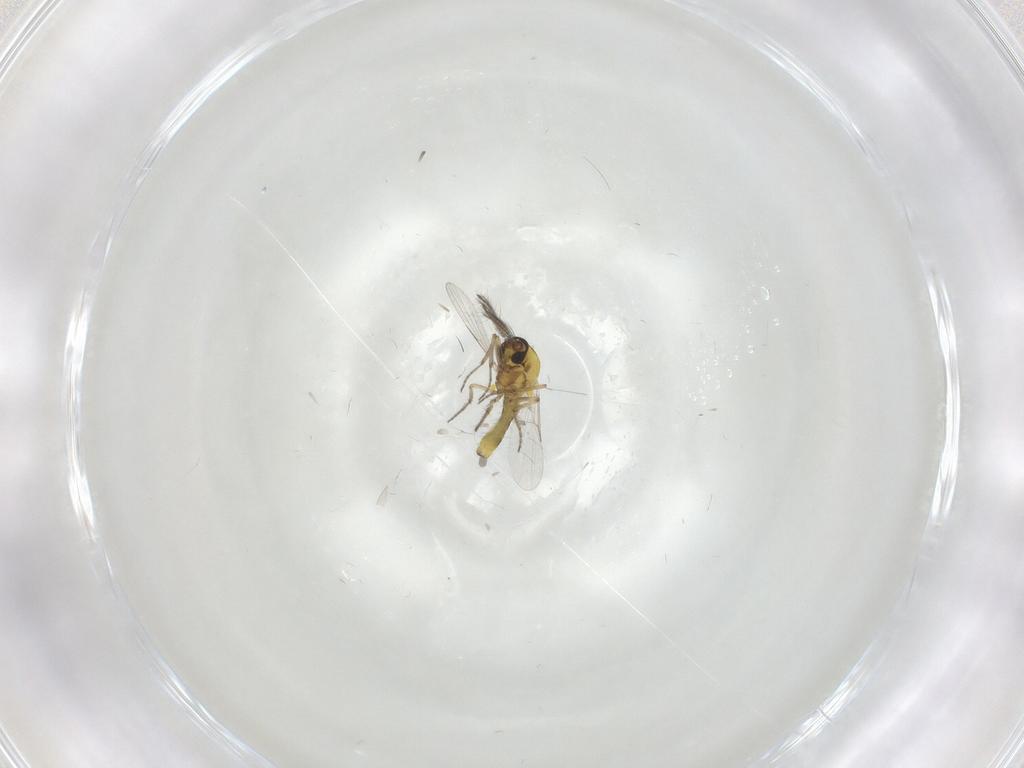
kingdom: Animalia
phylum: Arthropoda
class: Insecta
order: Diptera
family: Ceratopogonidae
